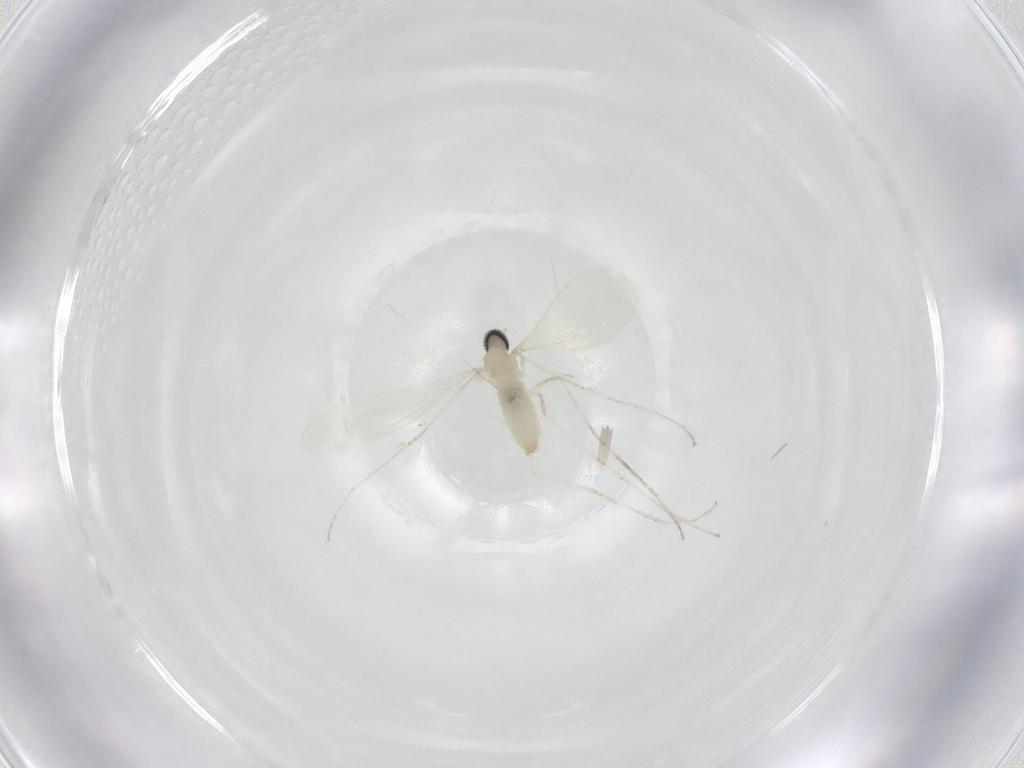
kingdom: Animalia
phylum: Arthropoda
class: Insecta
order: Diptera
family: Cecidomyiidae
